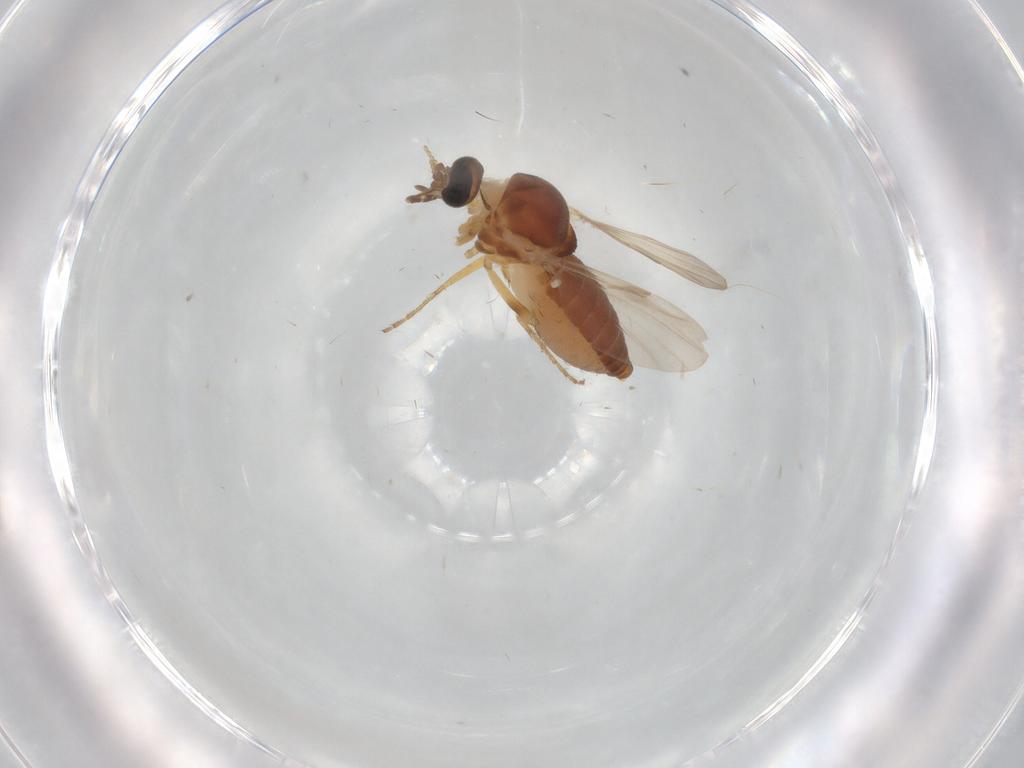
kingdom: Animalia
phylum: Arthropoda
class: Insecta
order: Diptera
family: Ceratopogonidae
